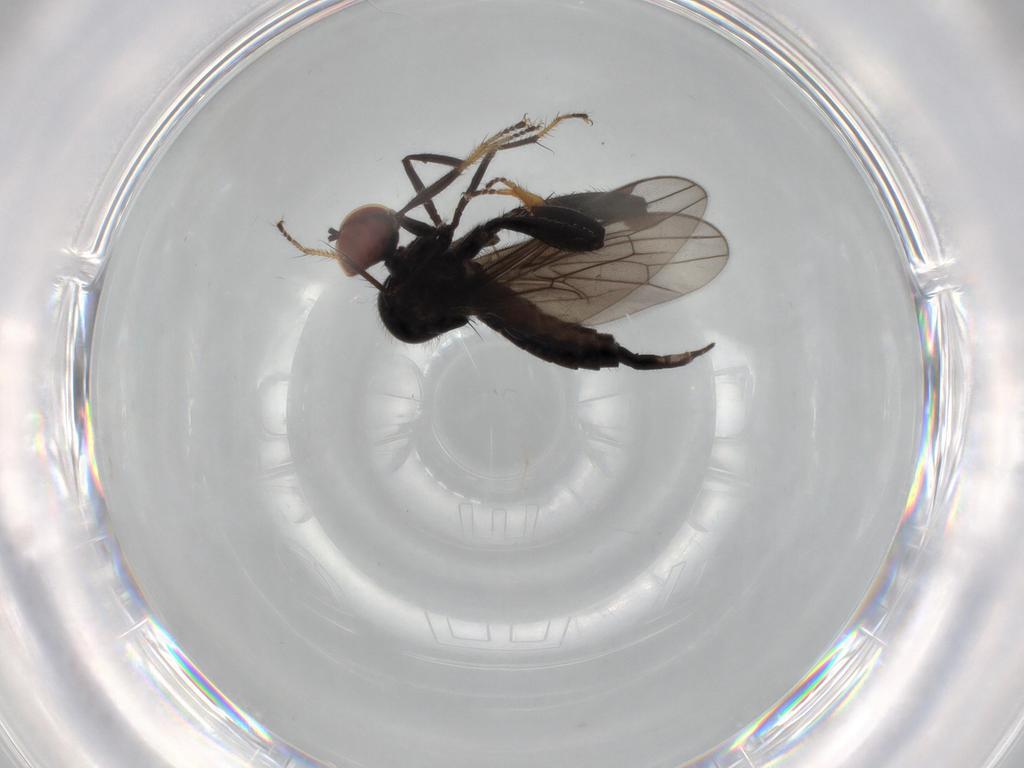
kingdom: Animalia
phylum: Arthropoda
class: Insecta
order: Diptera
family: Hybotidae
